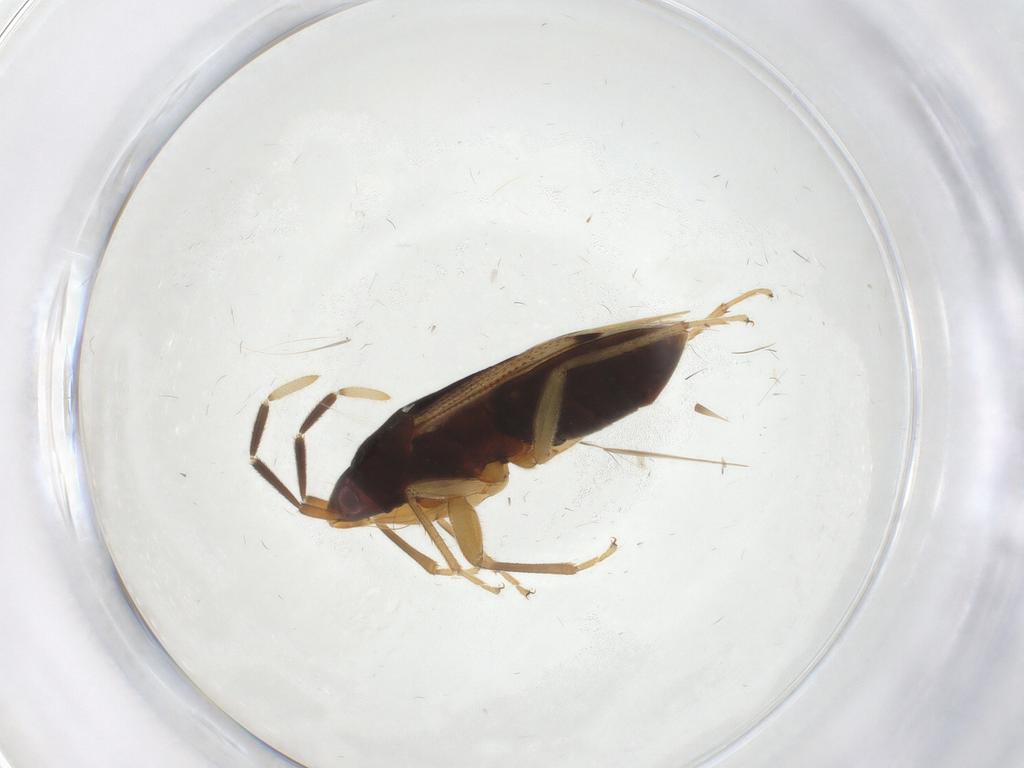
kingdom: Animalia
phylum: Arthropoda
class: Insecta
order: Hemiptera
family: Rhyparochromidae
